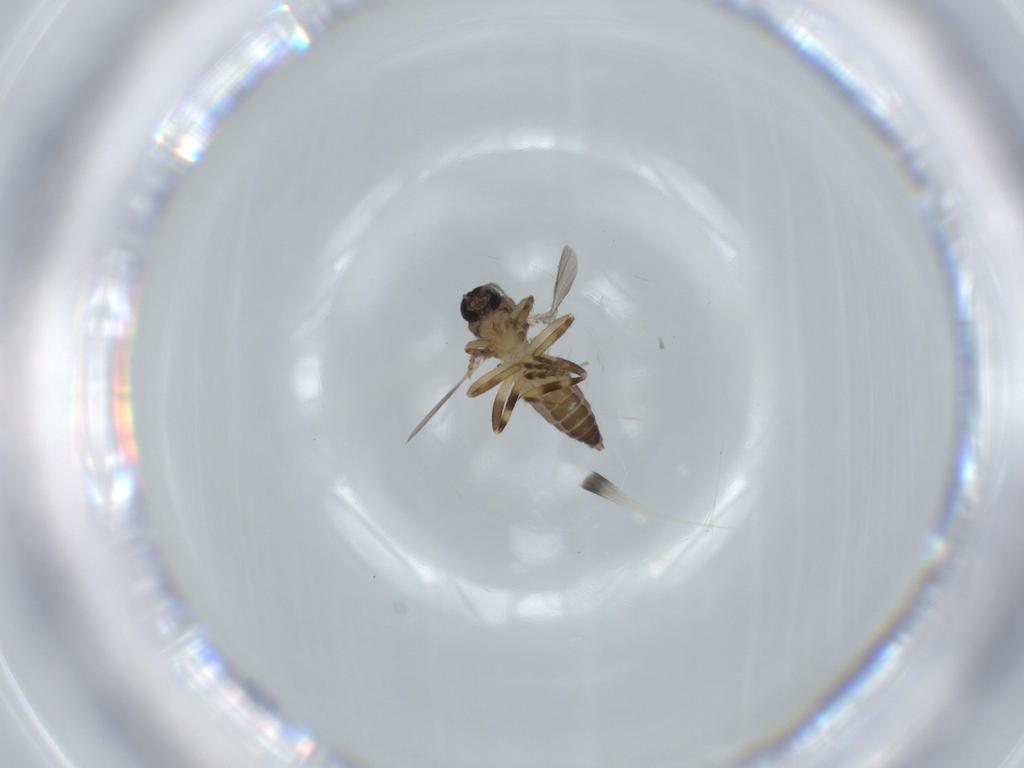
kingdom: Animalia
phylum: Arthropoda
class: Insecta
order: Diptera
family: Ceratopogonidae
